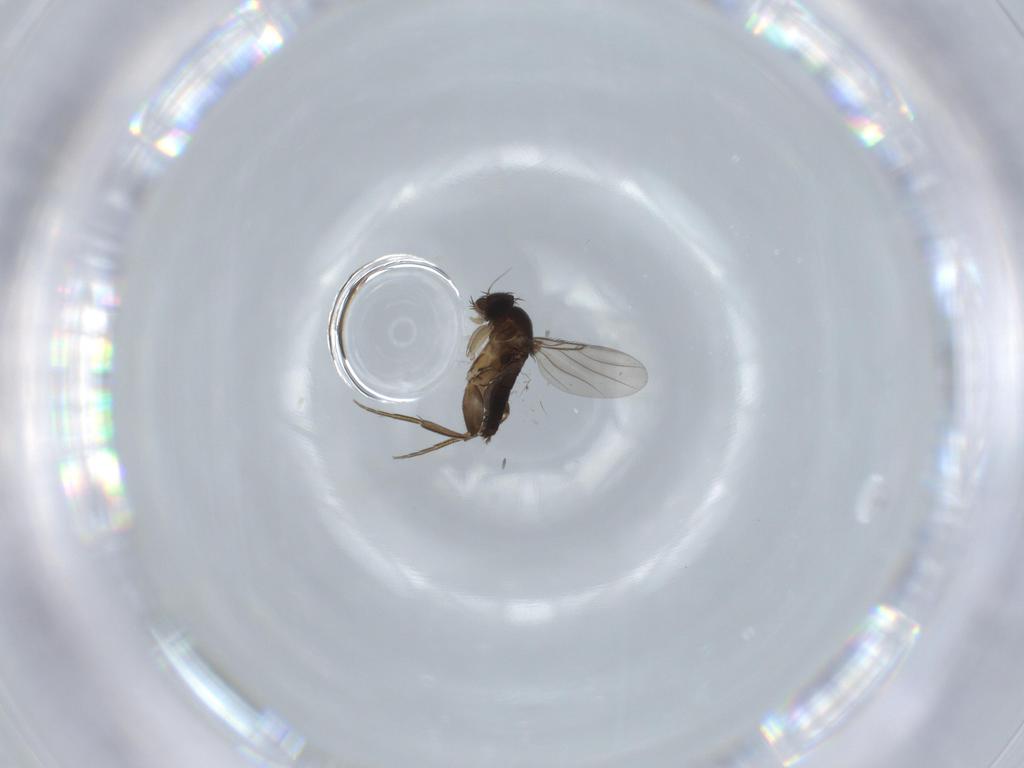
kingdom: Animalia
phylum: Arthropoda
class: Insecta
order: Diptera
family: Phoridae
